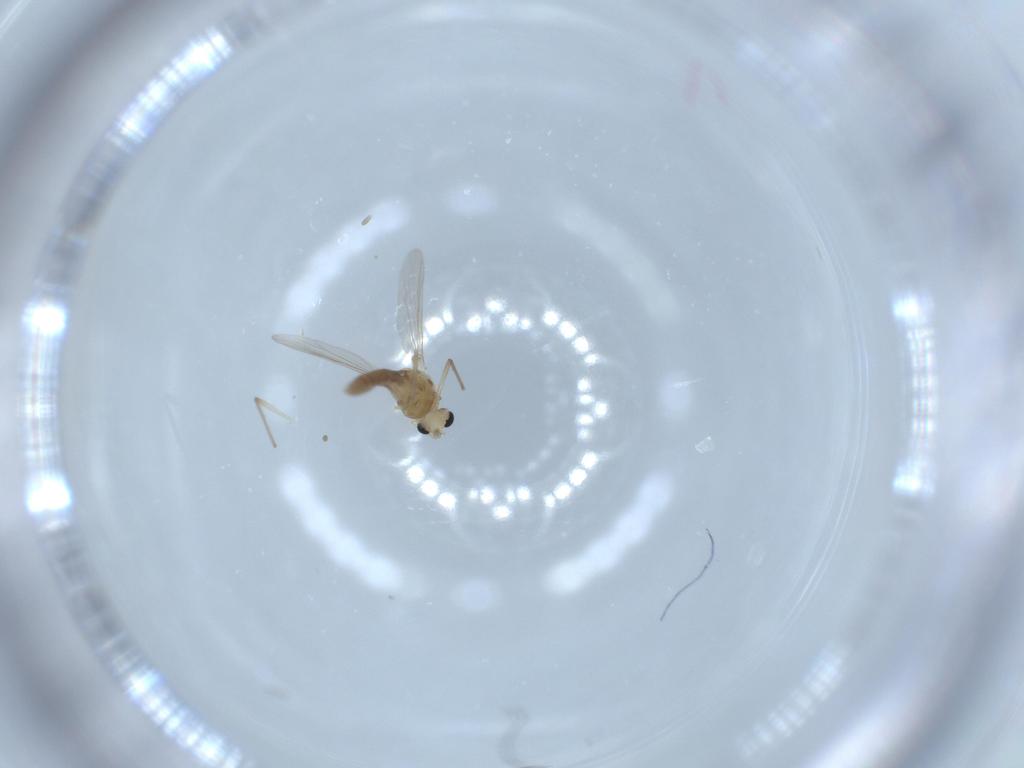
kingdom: Animalia
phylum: Arthropoda
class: Insecta
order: Diptera
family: Chironomidae
